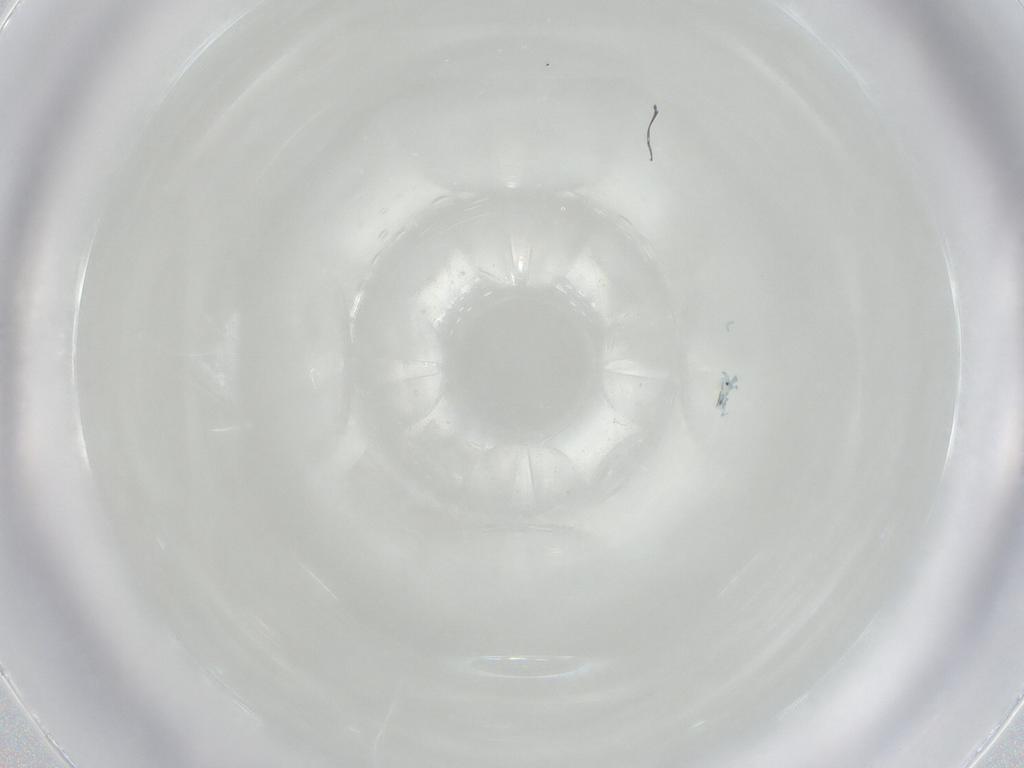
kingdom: Animalia
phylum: Arthropoda
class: Arachnida
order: Trombidiformes
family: Arrenuridae
